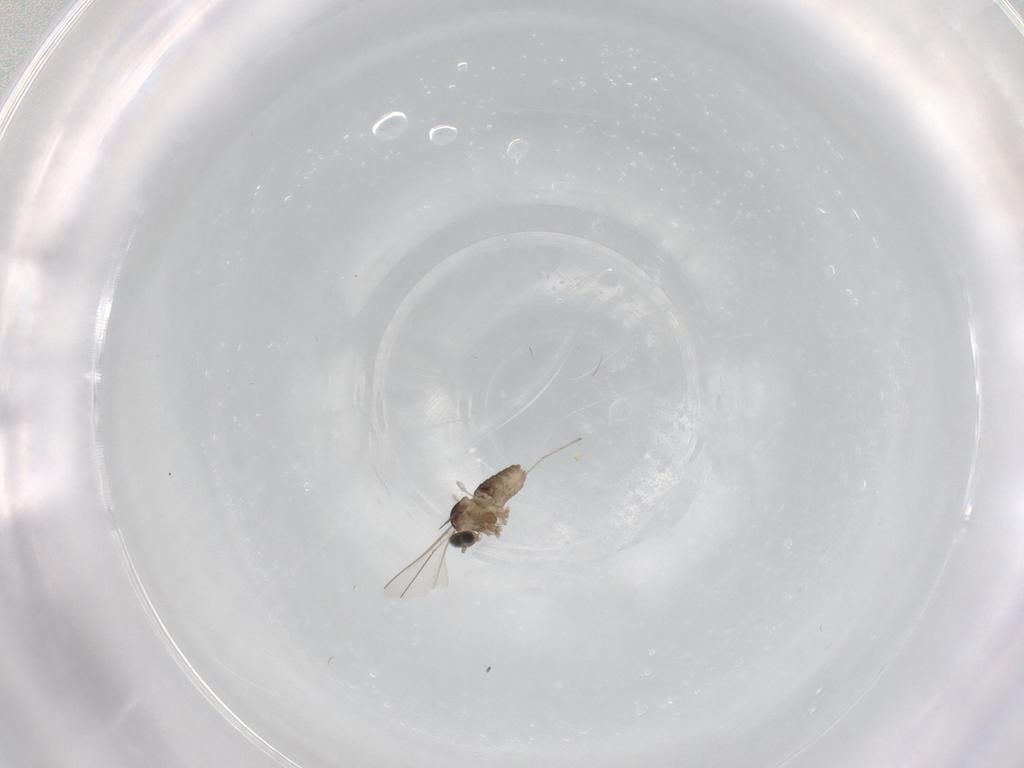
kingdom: Animalia
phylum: Arthropoda
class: Insecta
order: Diptera
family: Cecidomyiidae
